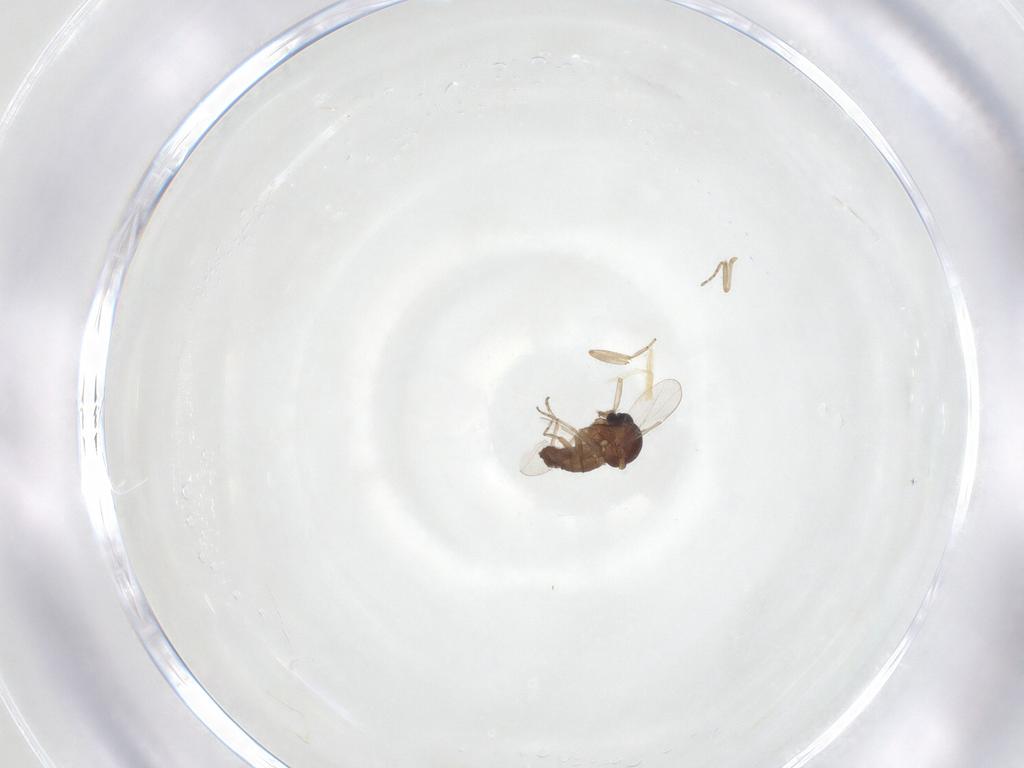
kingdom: Animalia
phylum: Arthropoda
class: Insecta
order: Diptera
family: Ceratopogonidae
